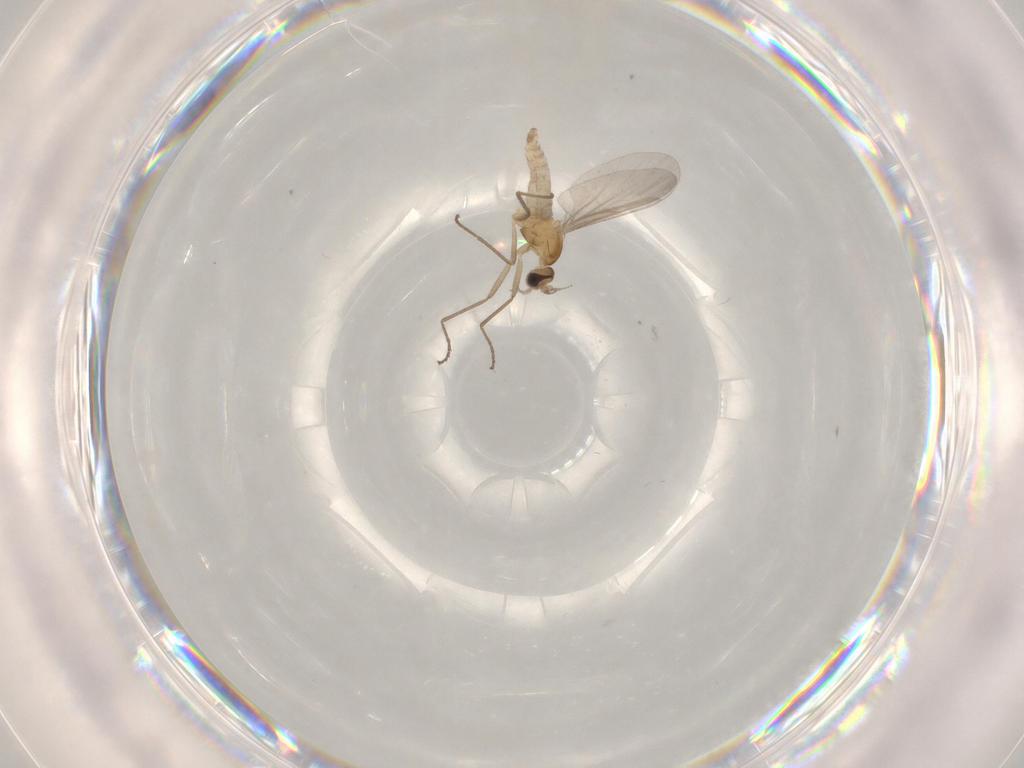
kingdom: Animalia
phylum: Arthropoda
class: Insecta
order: Diptera
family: Cecidomyiidae
